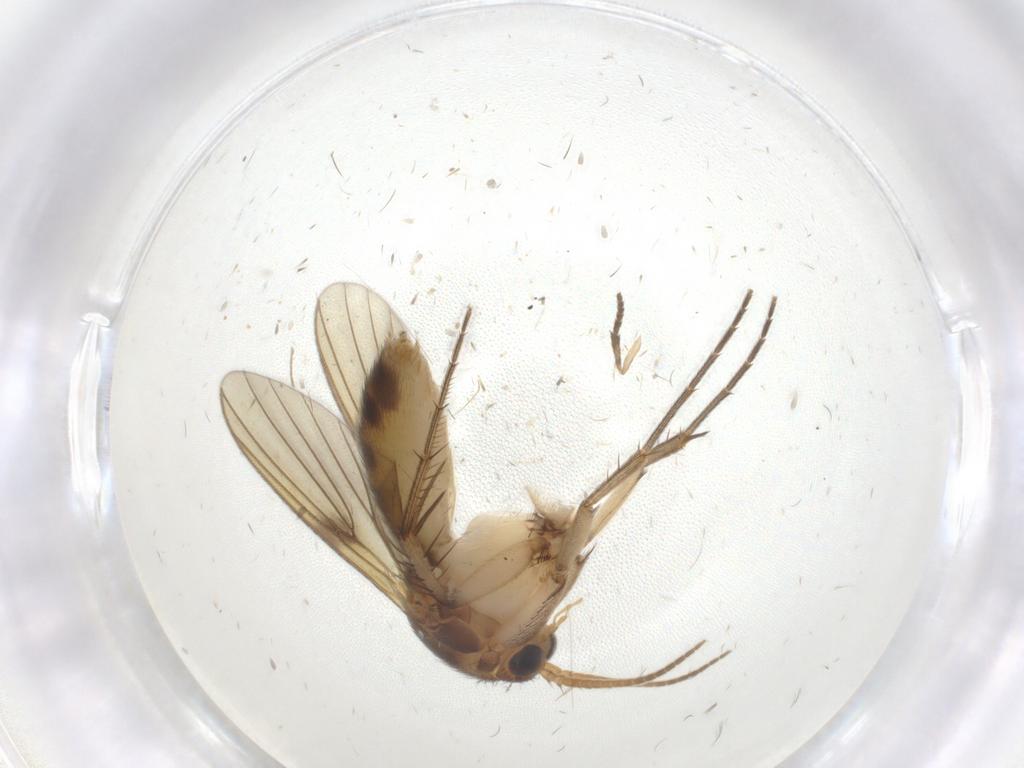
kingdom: Animalia
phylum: Arthropoda
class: Insecta
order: Diptera
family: Mycetophilidae
